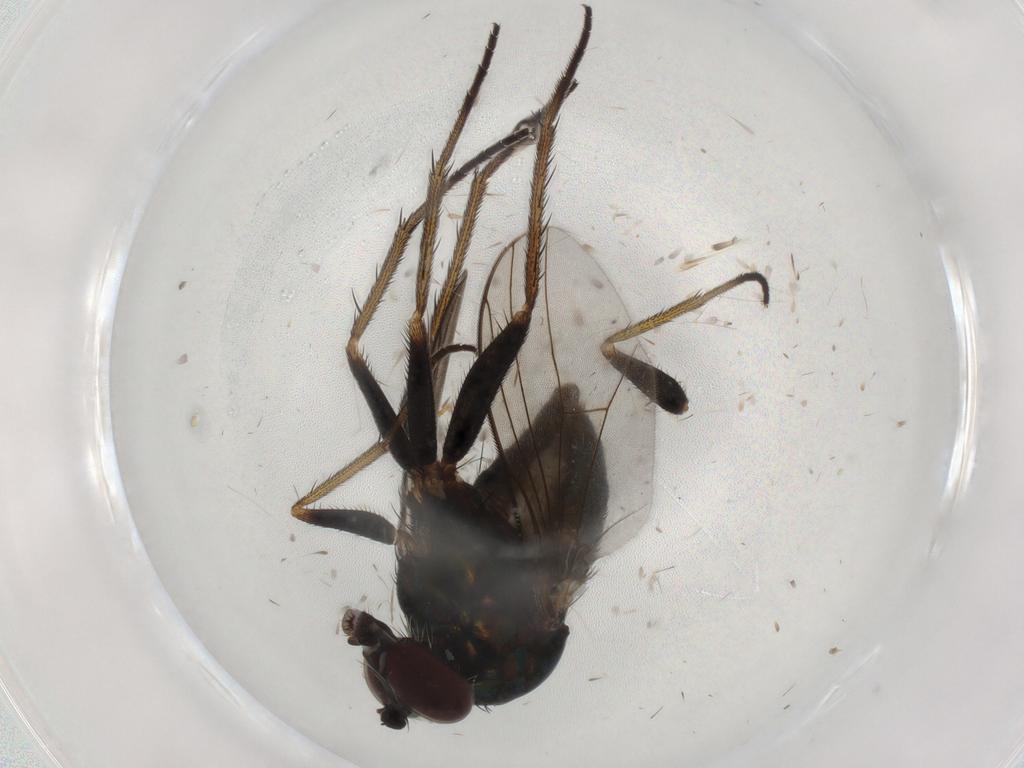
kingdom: Animalia
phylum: Arthropoda
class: Insecta
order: Diptera
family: Culicidae
